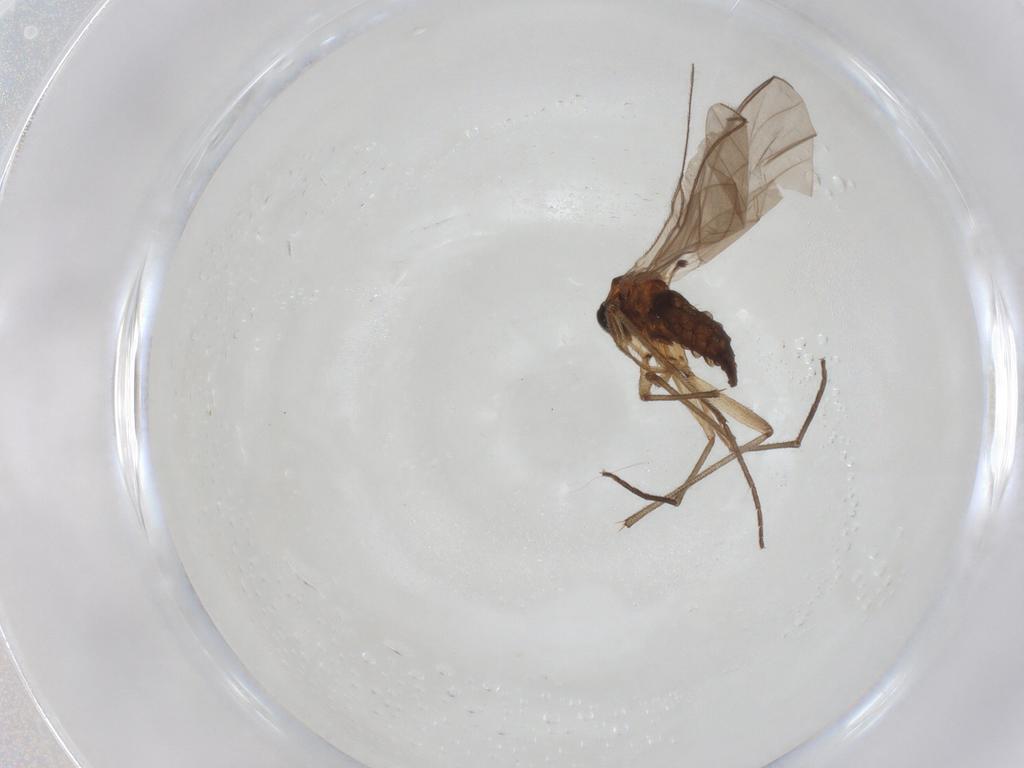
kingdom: Animalia
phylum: Arthropoda
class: Insecta
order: Diptera
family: Sciaridae
